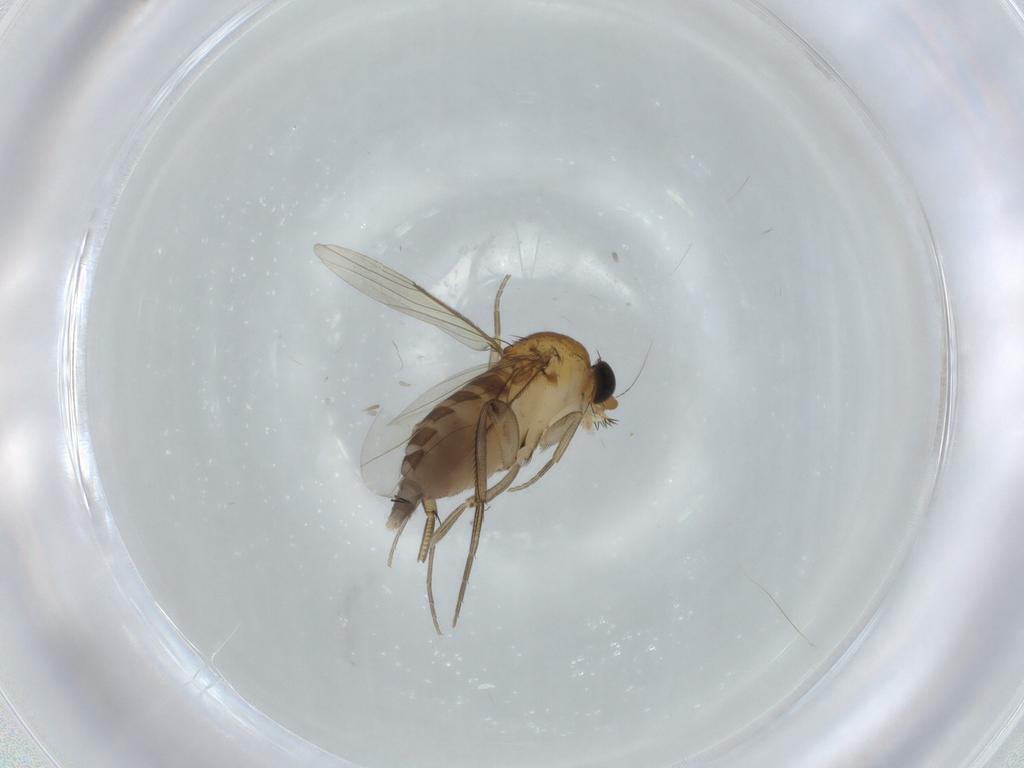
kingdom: Animalia
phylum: Arthropoda
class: Insecta
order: Diptera
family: Phoridae
